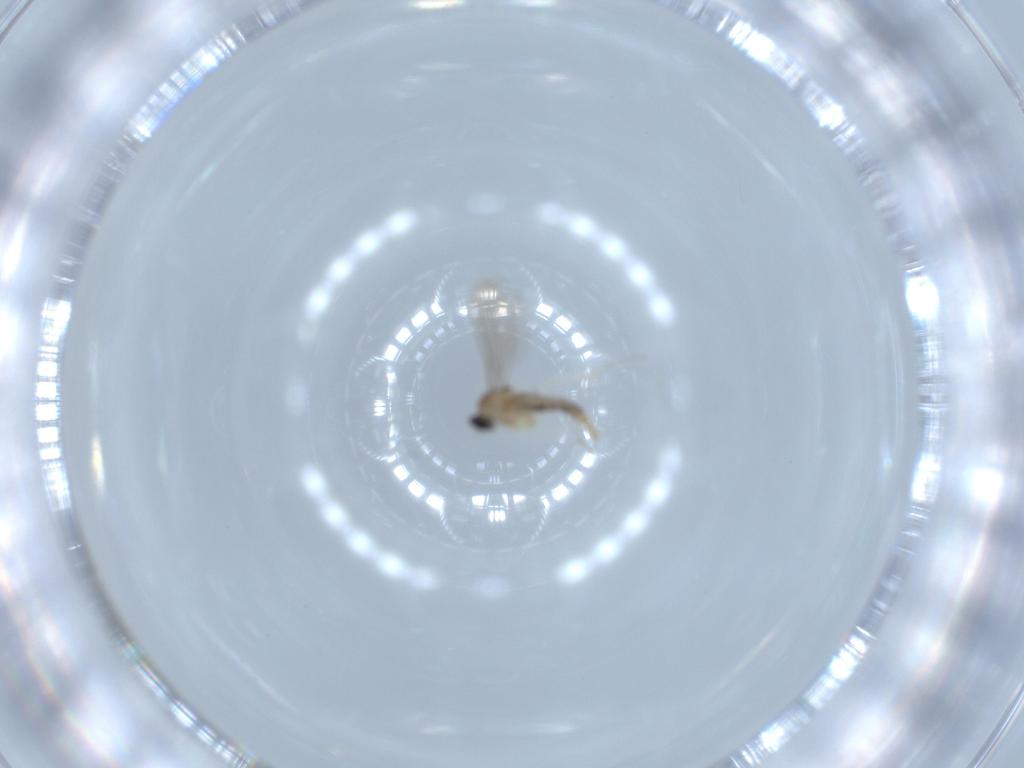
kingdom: Animalia
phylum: Arthropoda
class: Insecta
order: Diptera
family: Cecidomyiidae
